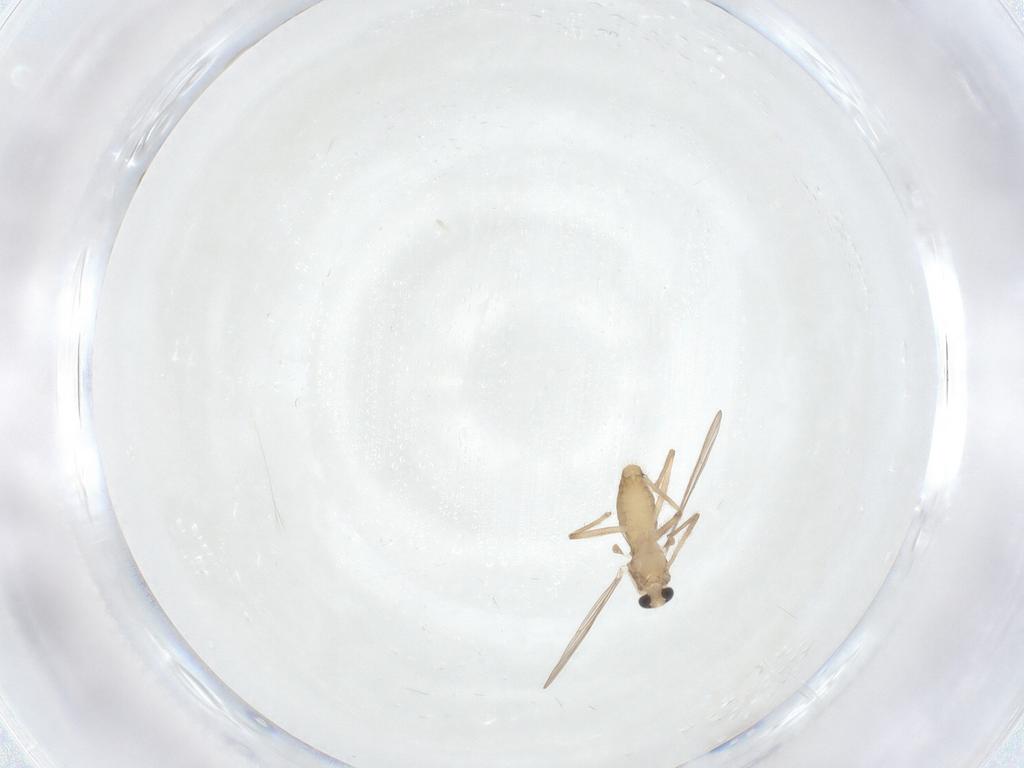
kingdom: Animalia
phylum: Arthropoda
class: Insecta
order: Diptera
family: Chironomidae
